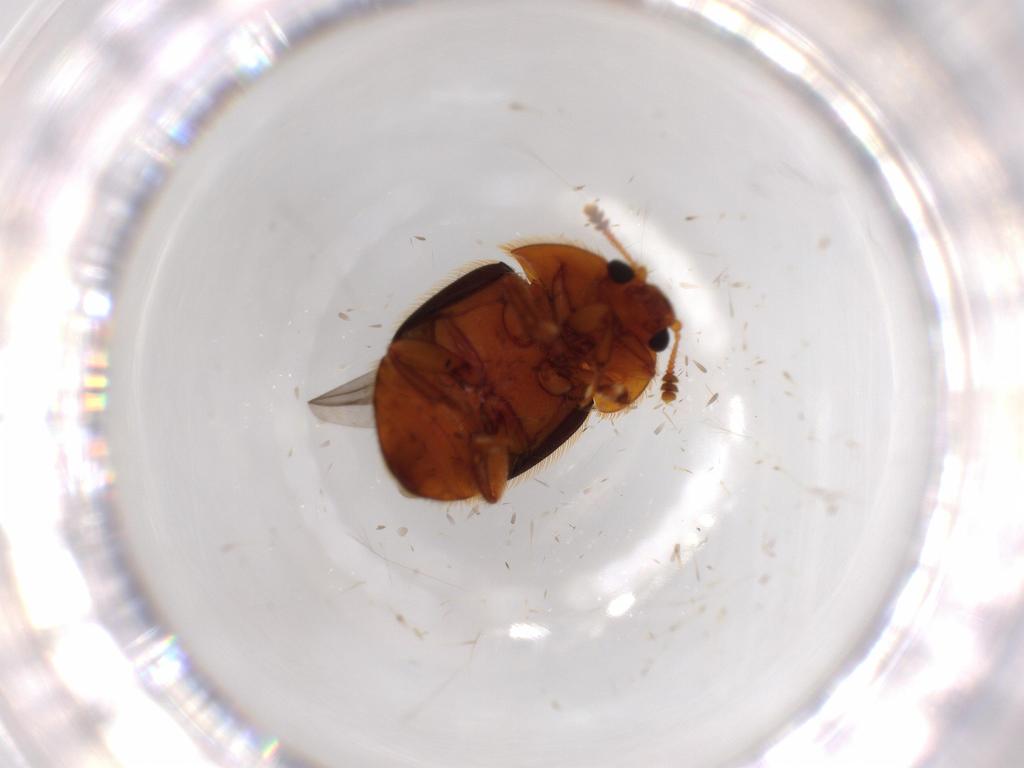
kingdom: Animalia
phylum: Arthropoda
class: Insecta
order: Coleoptera
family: Nitidulidae
